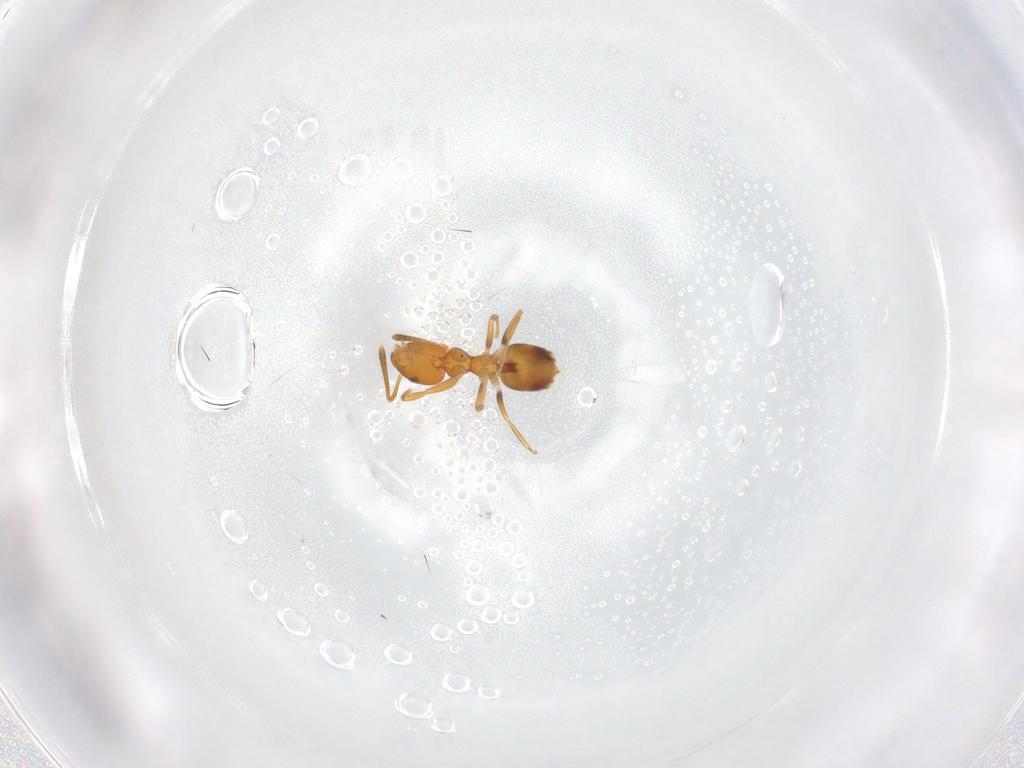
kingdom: Animalia
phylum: Arthropoda
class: Insecta
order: Hymenoptera
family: Formicidae
